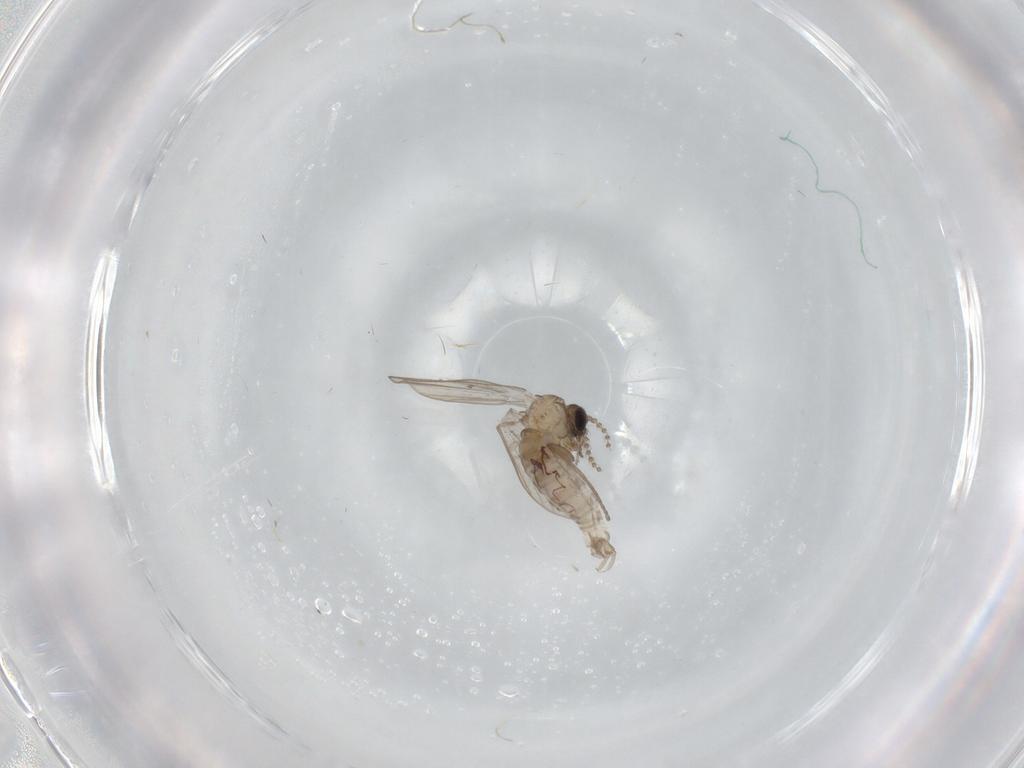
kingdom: Animalia
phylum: Arthropoda
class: Insecta
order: Diptera
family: Psychodidae
